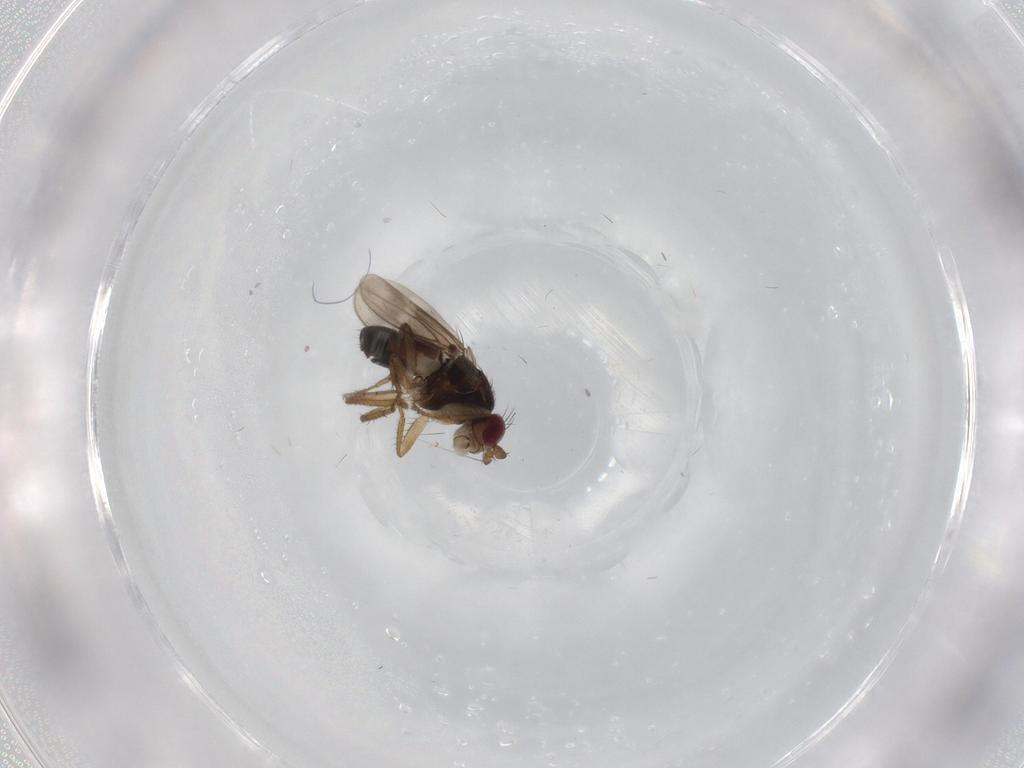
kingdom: Animalia
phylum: Arthropoda
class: Insecta
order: Diptera
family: Sphaeroceridae
